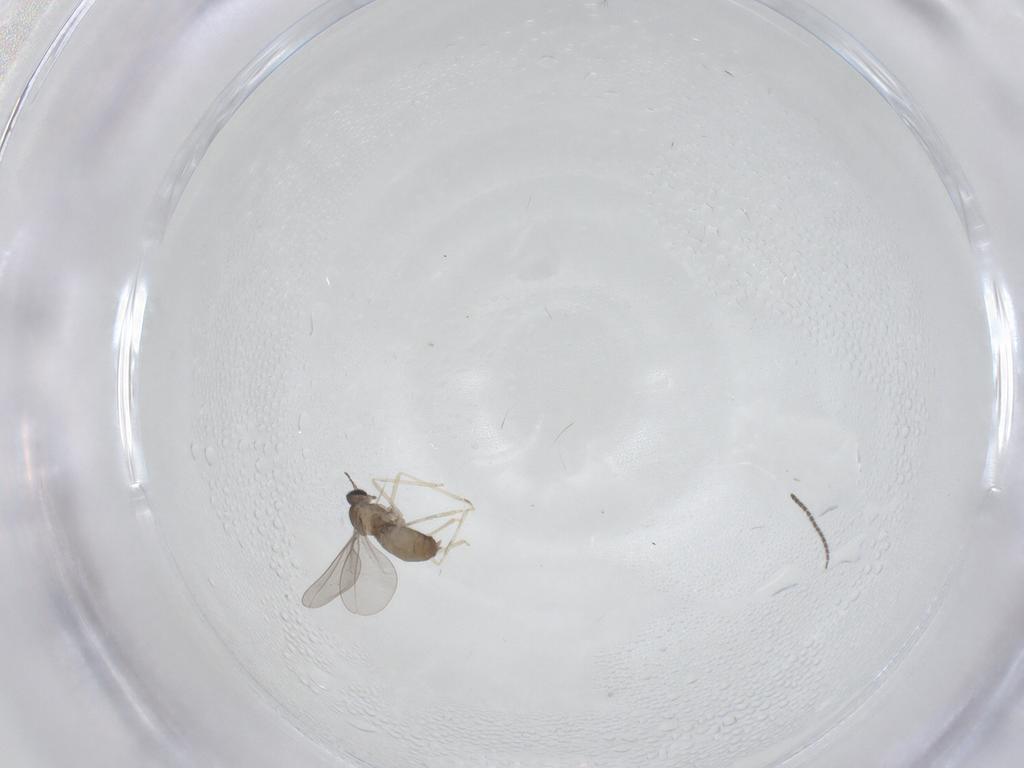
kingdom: Animalia
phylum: Arthropoda
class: Insecta
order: Diptera
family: Sciaridae
